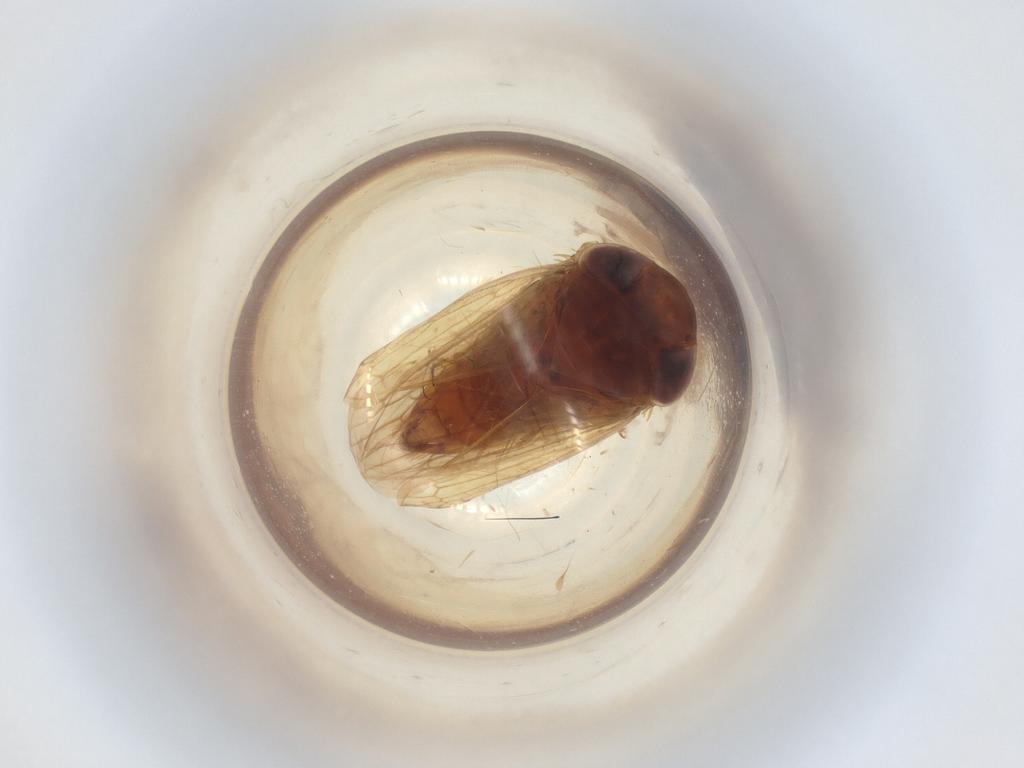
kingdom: Animalia
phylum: Arthropoda
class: Insecta
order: Hemiptera
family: Cicadellidae
